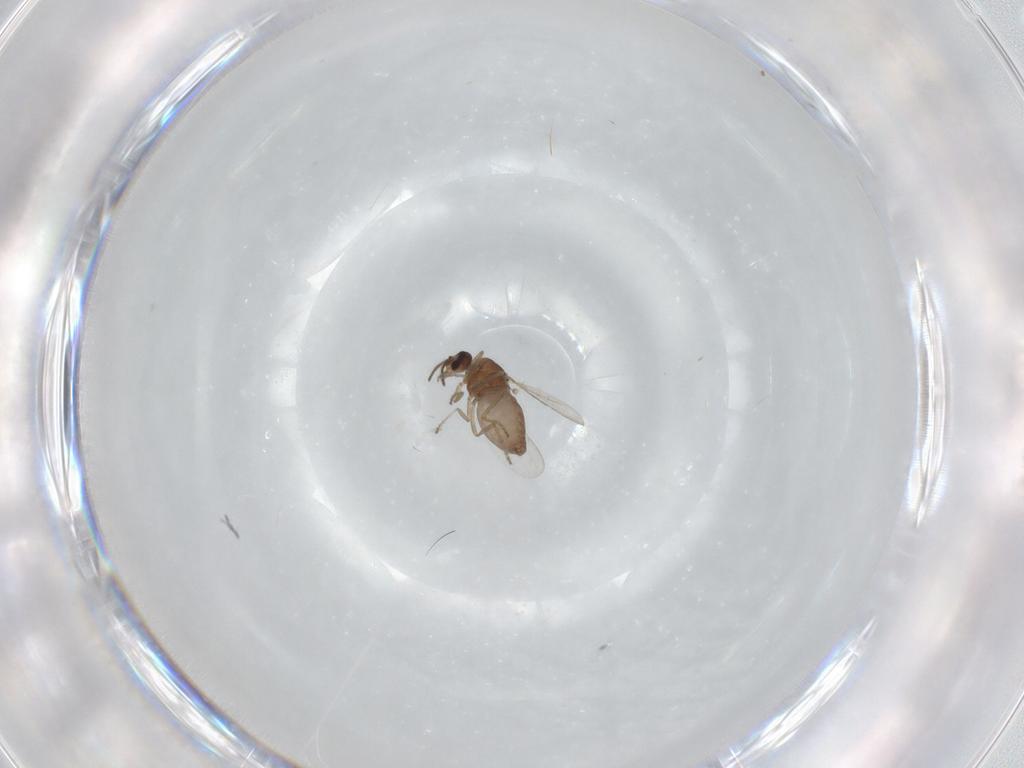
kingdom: Animalia
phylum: Arthropoda
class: Insecta
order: Diptera
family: Ceratopogonidae
